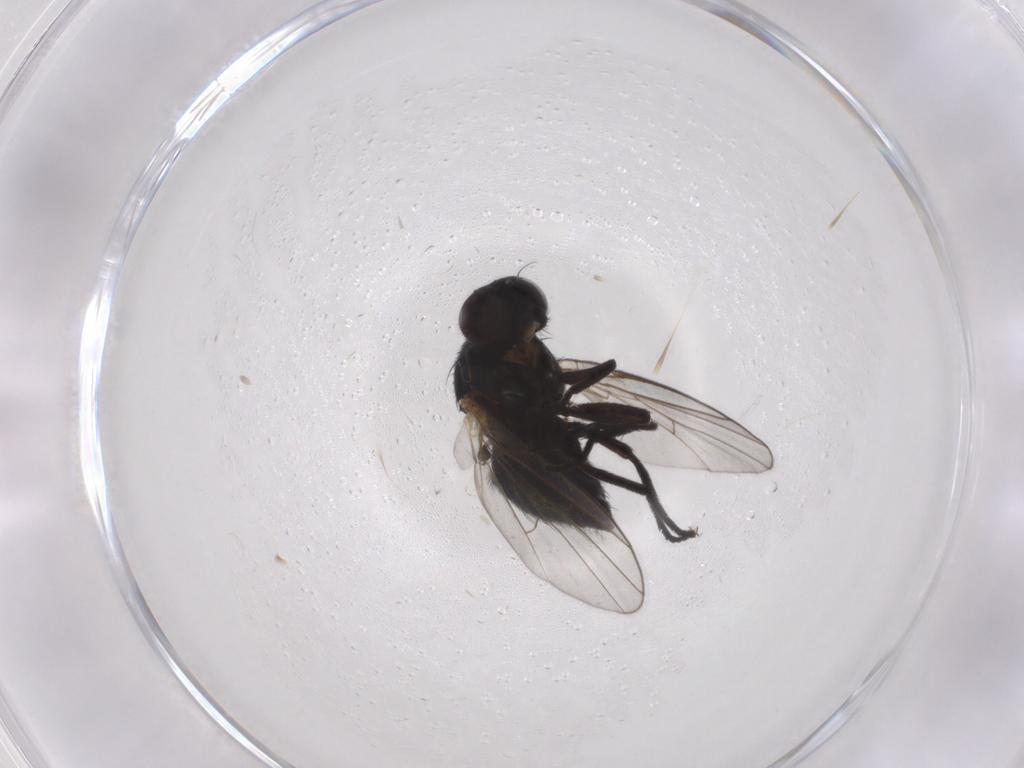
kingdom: Animalia
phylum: Arthropoda
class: Insecta
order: Diptera
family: Agromyzidae
